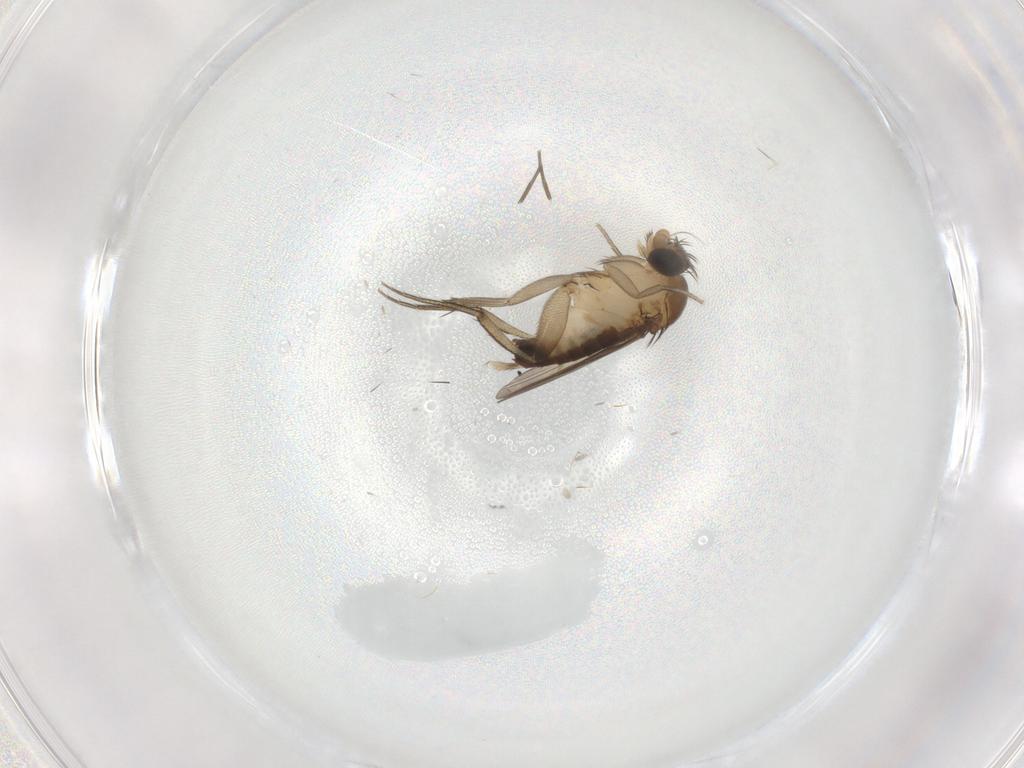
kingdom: Animalia
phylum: Arthropoda
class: Insecta
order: Diptera
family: Phoridae
